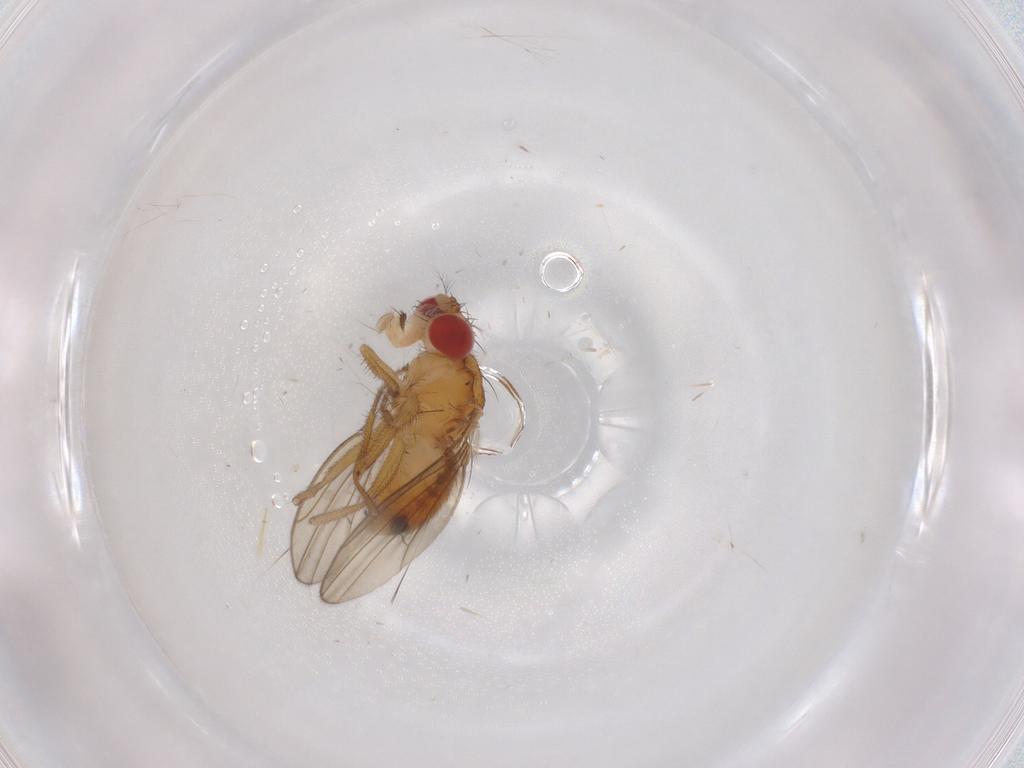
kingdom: Animalia
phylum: Arthropoda
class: Insecta
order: Diptera
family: Drosophilidae
